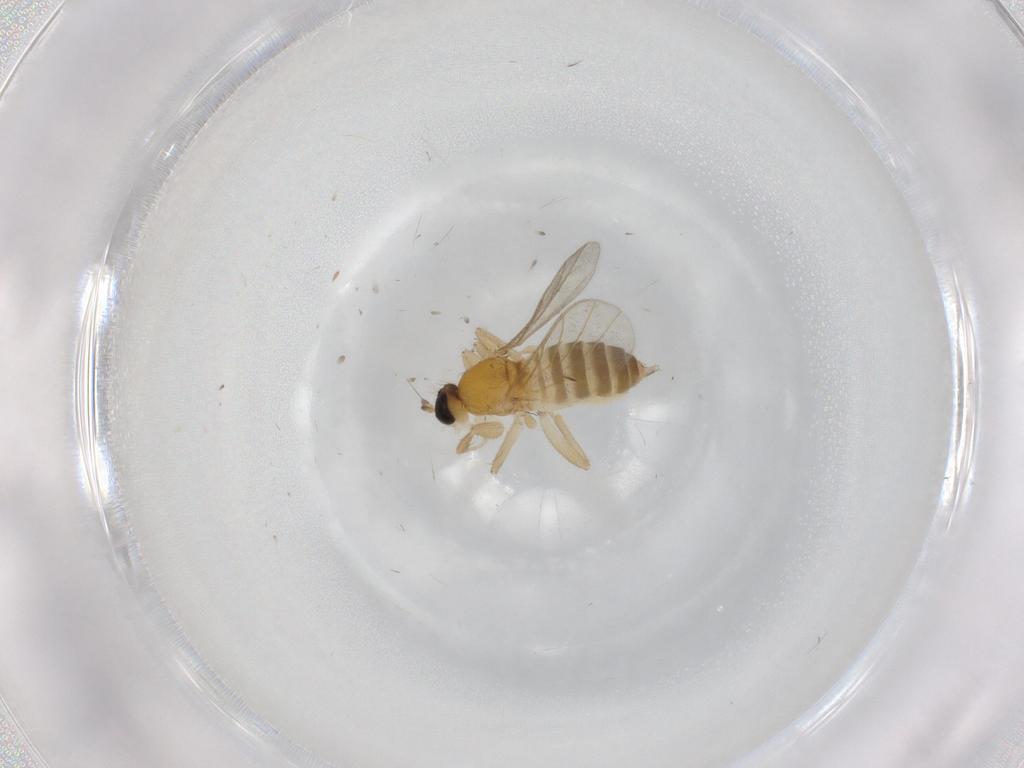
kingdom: Animalia
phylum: Arthropoda
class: Insecta
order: Diptera
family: Hybotidae
